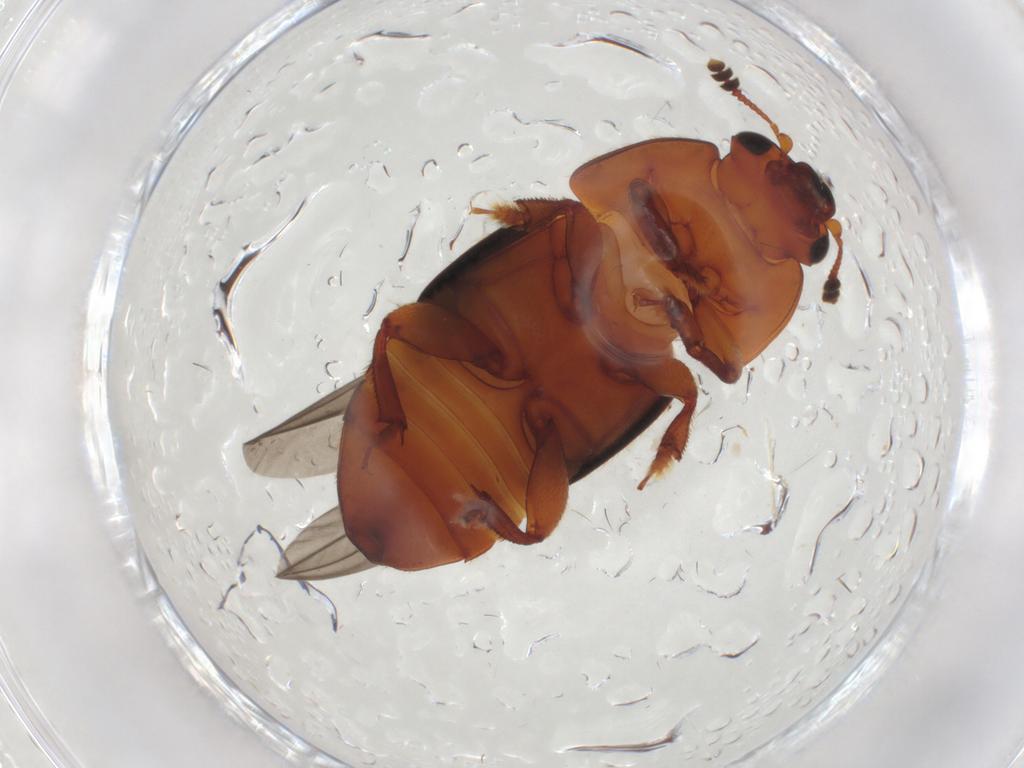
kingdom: Animalia
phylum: Arthropoda
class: Insecta
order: Coleoptera
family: Nitidulidae
